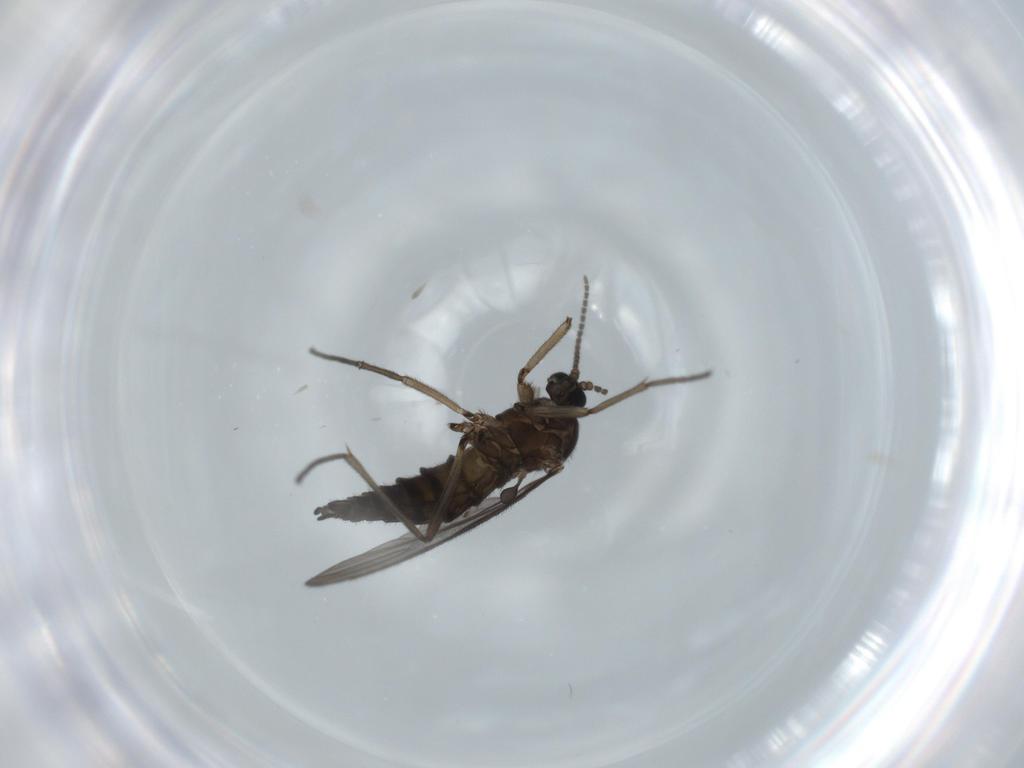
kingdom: Animalia
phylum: Arthropoda
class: Insecta
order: Diptera
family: Sciaridae
